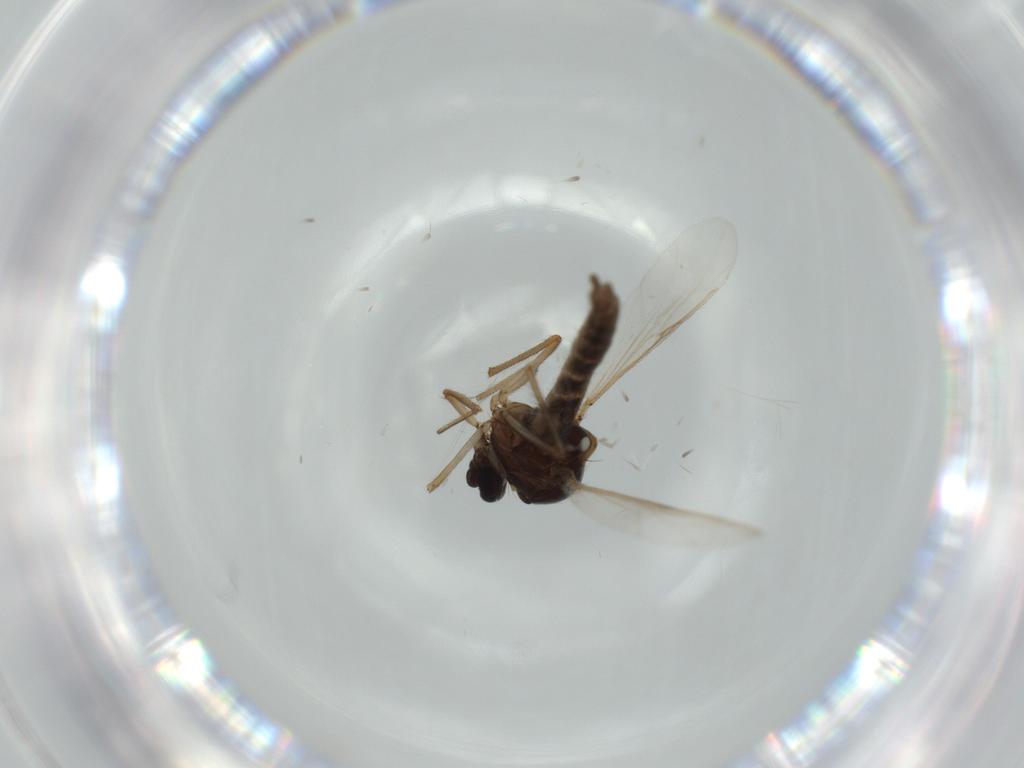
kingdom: Animalia
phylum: Arthropoda
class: Insecta
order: Diptera
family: Ceratopogonidae
